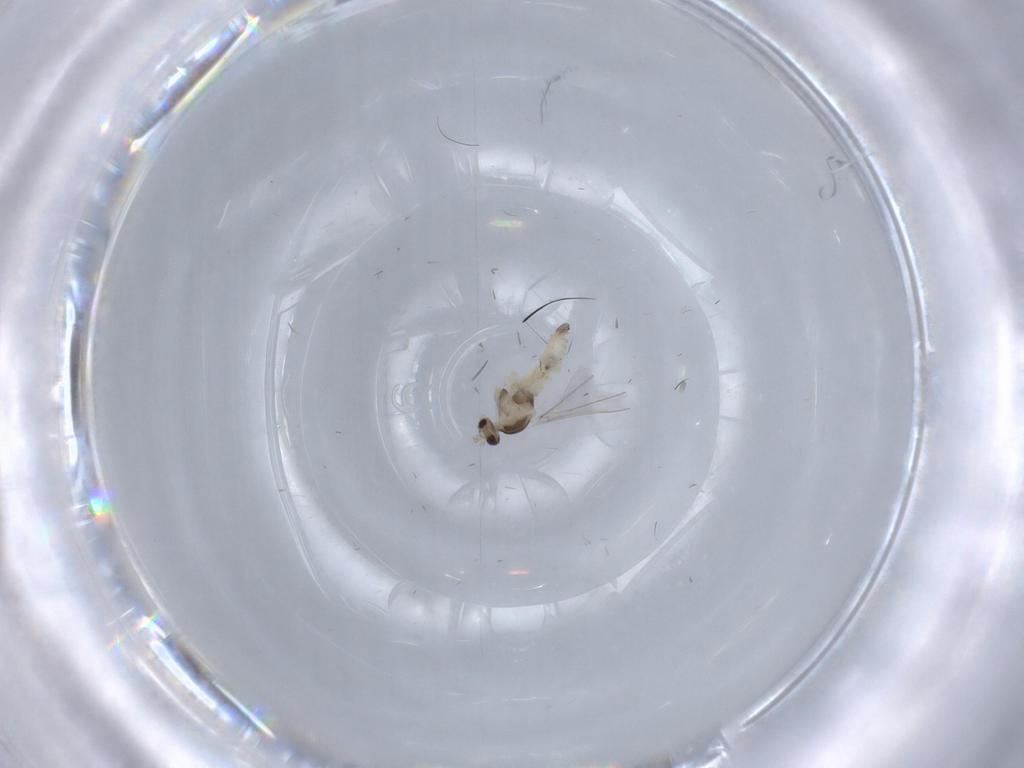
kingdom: Animalia
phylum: Arthropoda
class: Insecta
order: Diptera
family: Cecidomyiidae
